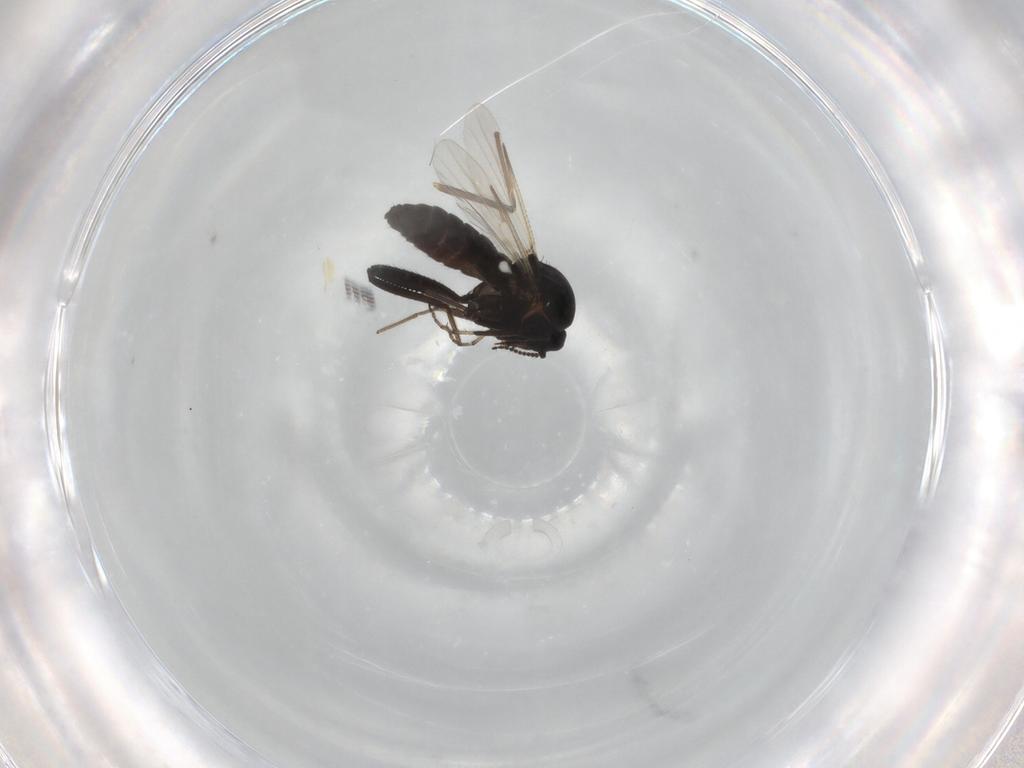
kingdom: Animalia
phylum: Arthropoda
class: Insecta
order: Diptera
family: Ceratopogonidae
